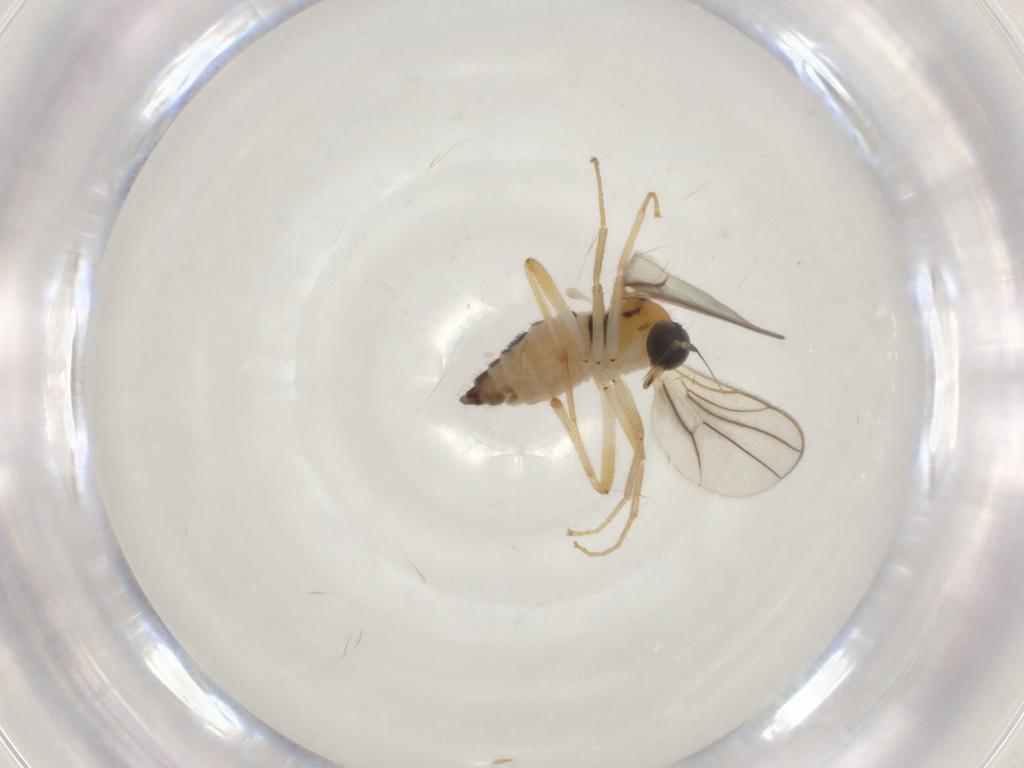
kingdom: Animalia
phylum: Arthropoda
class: Insecta
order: Diptera
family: Hybotidae
